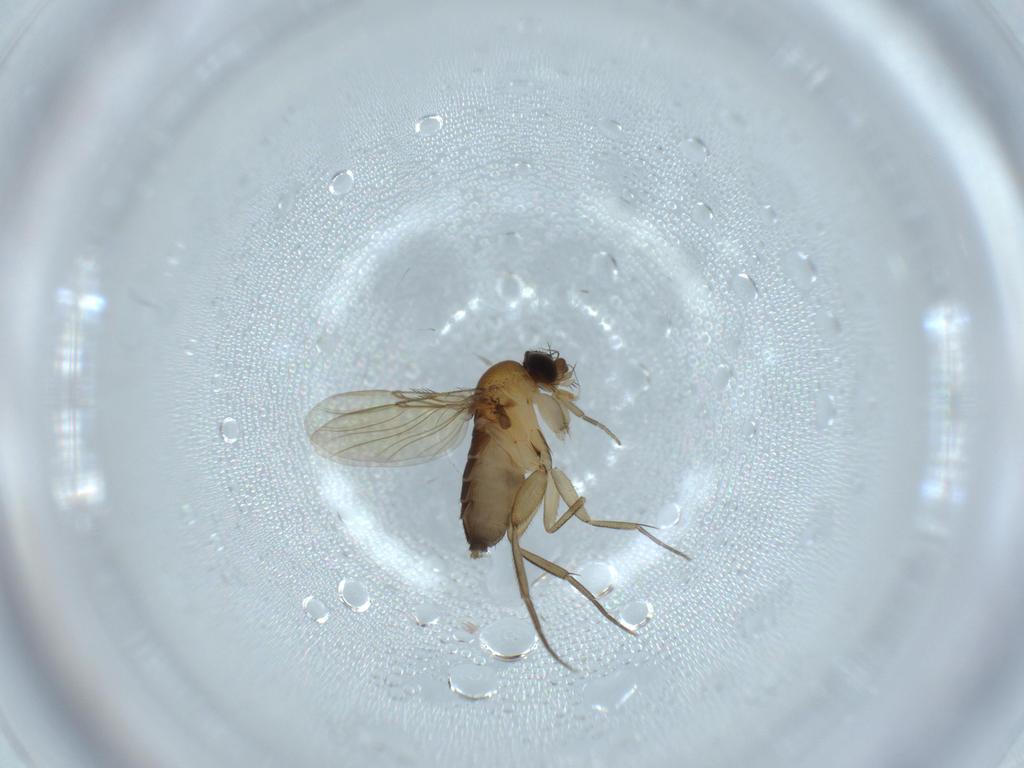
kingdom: Animalia
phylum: Arthropoda
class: Insecta
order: Diptera
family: Phoridae
